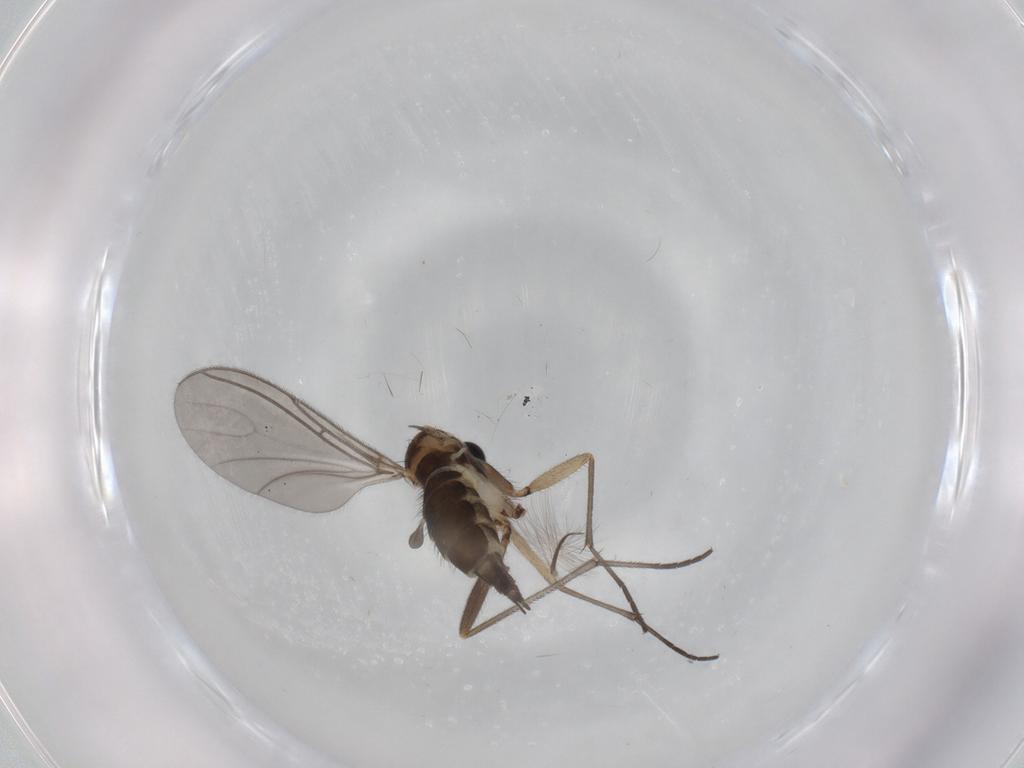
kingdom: Animalia
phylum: Arthropoda
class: Insecta
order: Diptera
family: Sciaridae
